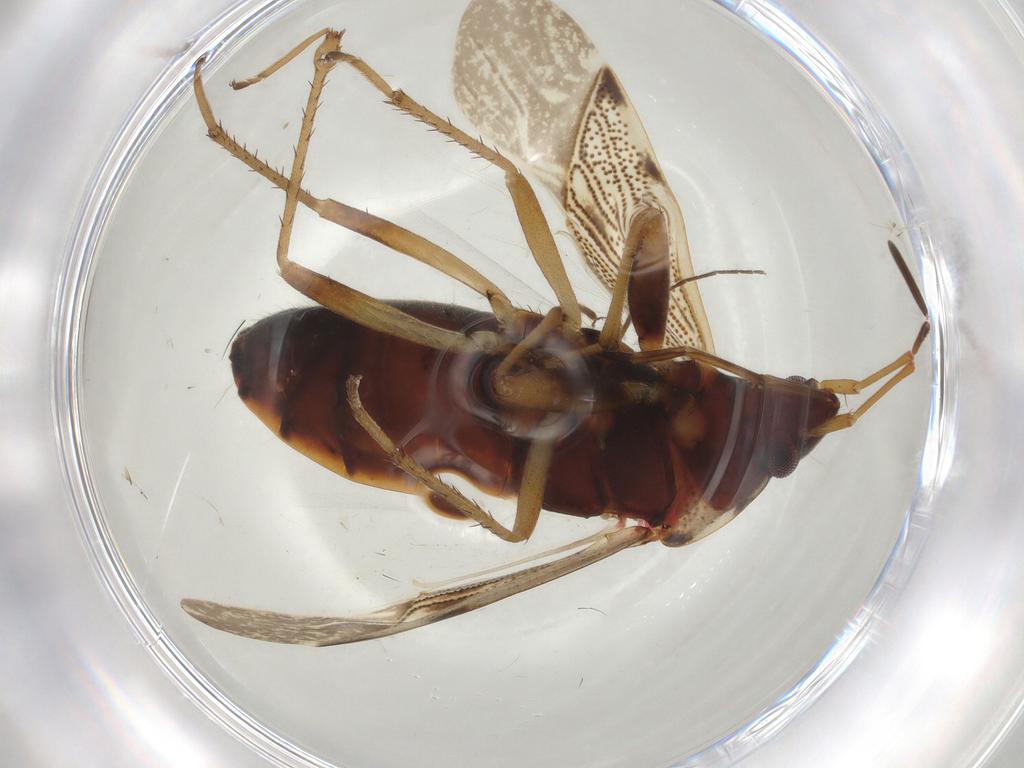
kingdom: Animalia
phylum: Arthropoda
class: Insecta
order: Hemiptera
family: Rhyparochromidae
